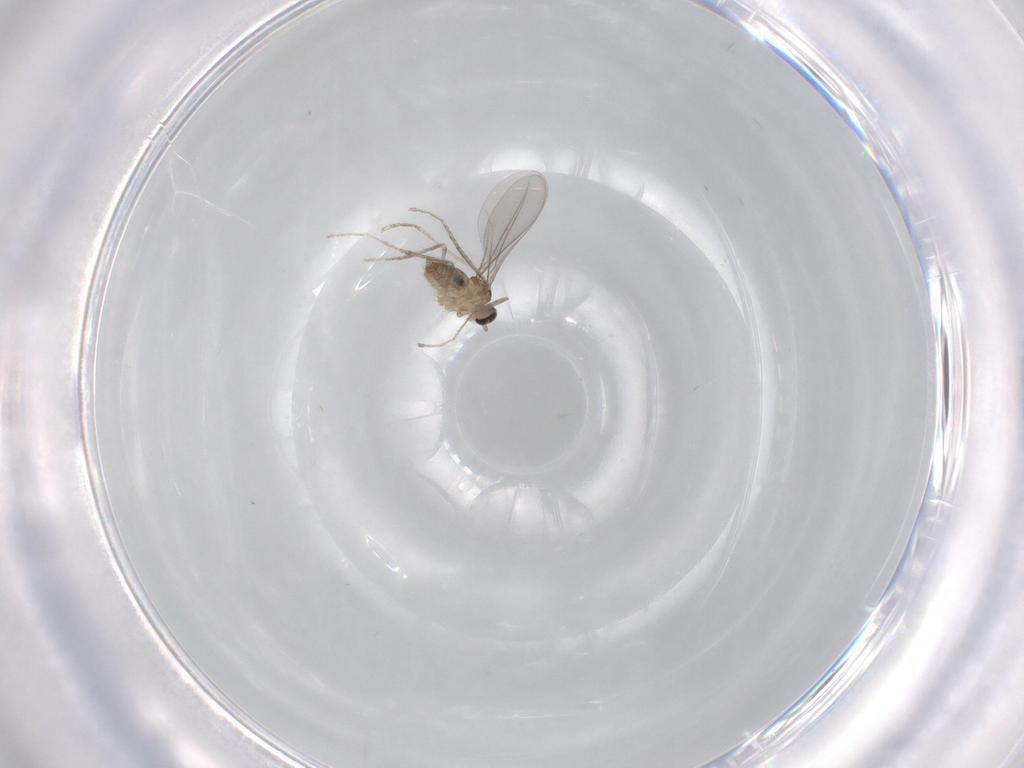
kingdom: Animalia
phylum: Arthropoda
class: Insecta
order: Diptera
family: Cecidomyiidae
